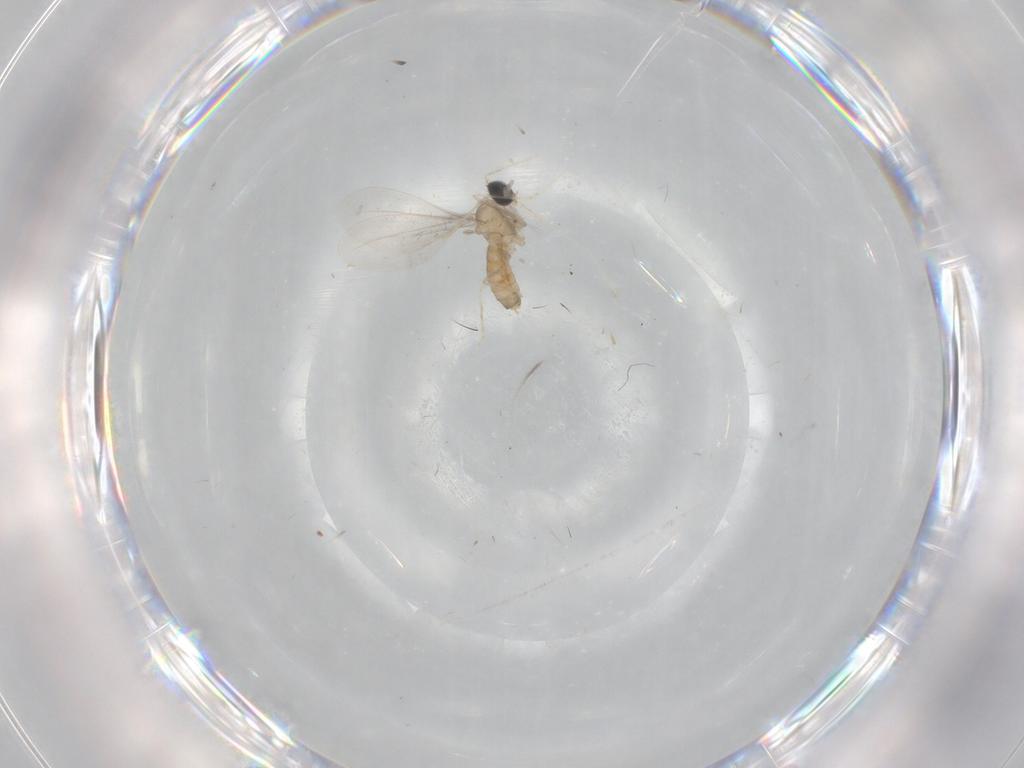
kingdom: Animalia
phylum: Arthropoda
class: Insecta
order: Diptera
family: Cecidomyiidae
